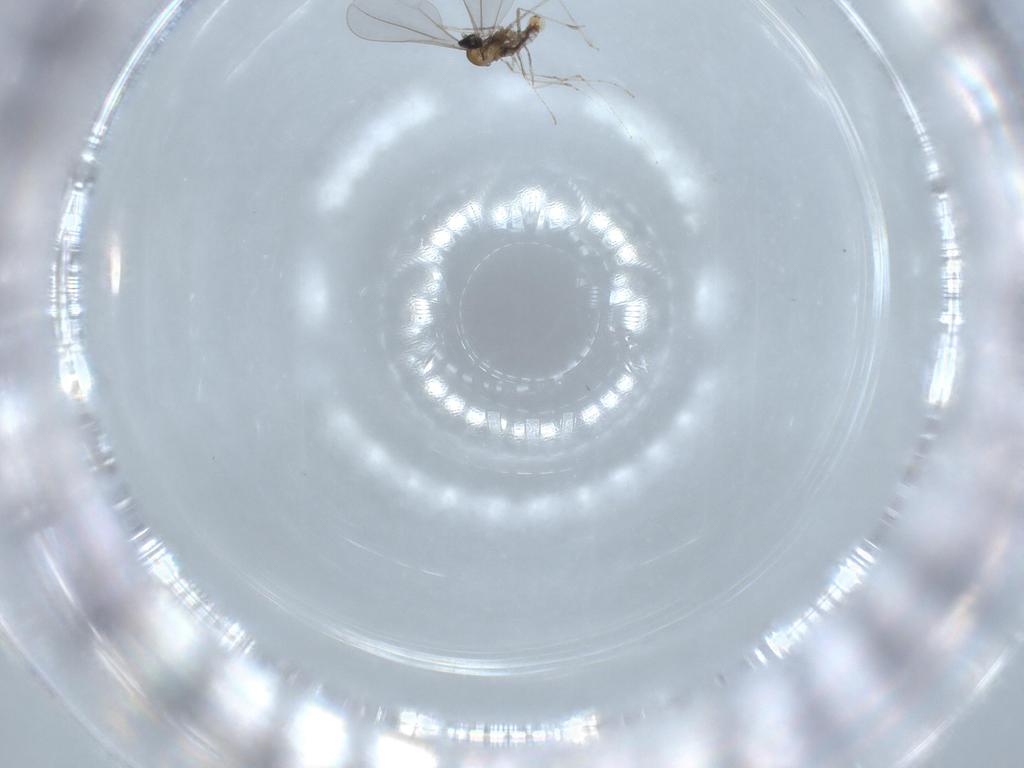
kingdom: Animalia
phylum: Arthropoda
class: Insecta
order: Diptera
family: Cecidomyiidae
